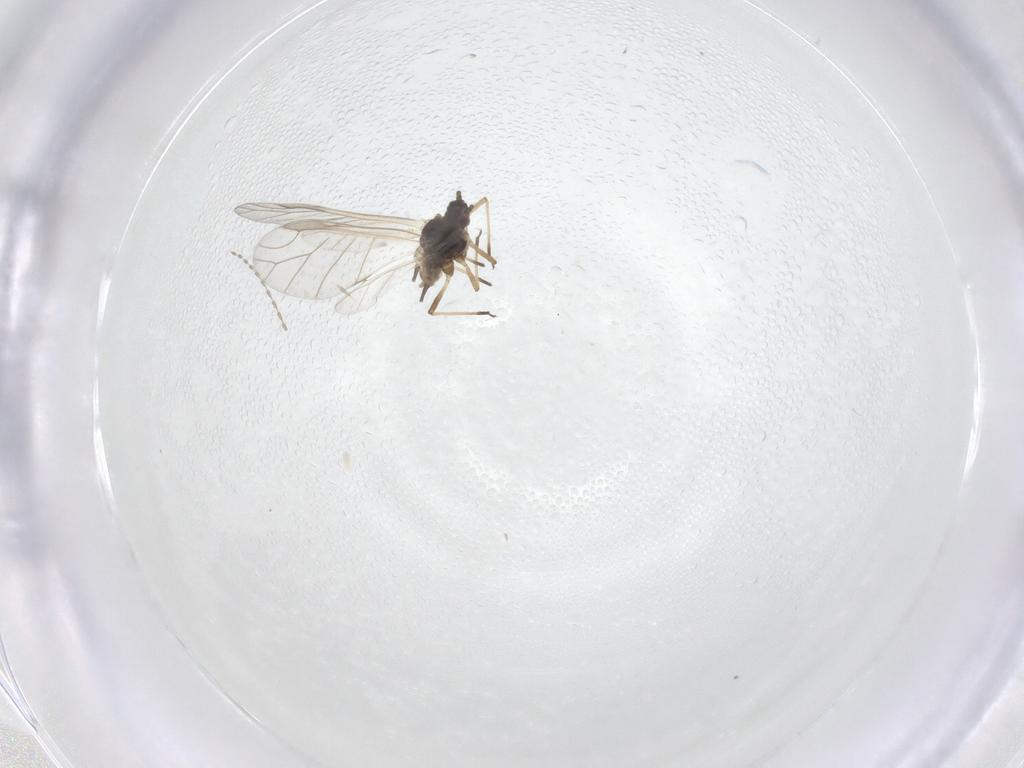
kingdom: Animalia
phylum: Arthropoda
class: Insecta
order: Hemiptera
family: Aphididae
